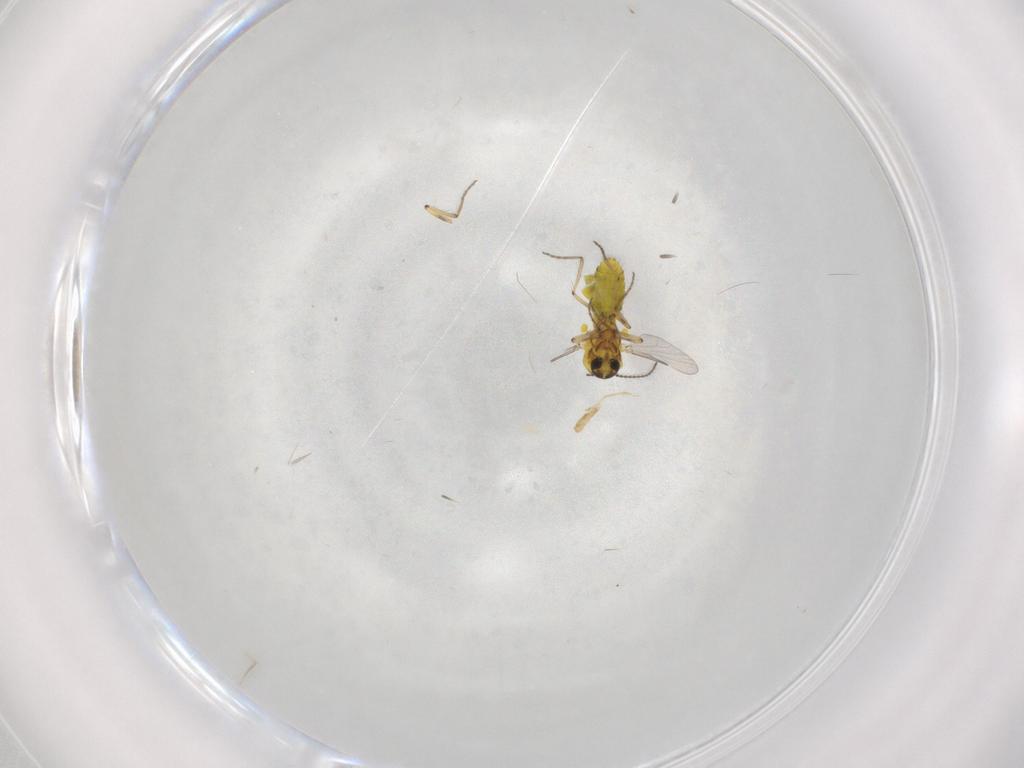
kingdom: Animalia
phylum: Arthropoda
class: Insecta
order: Diptera
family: Ceratopogonidae
